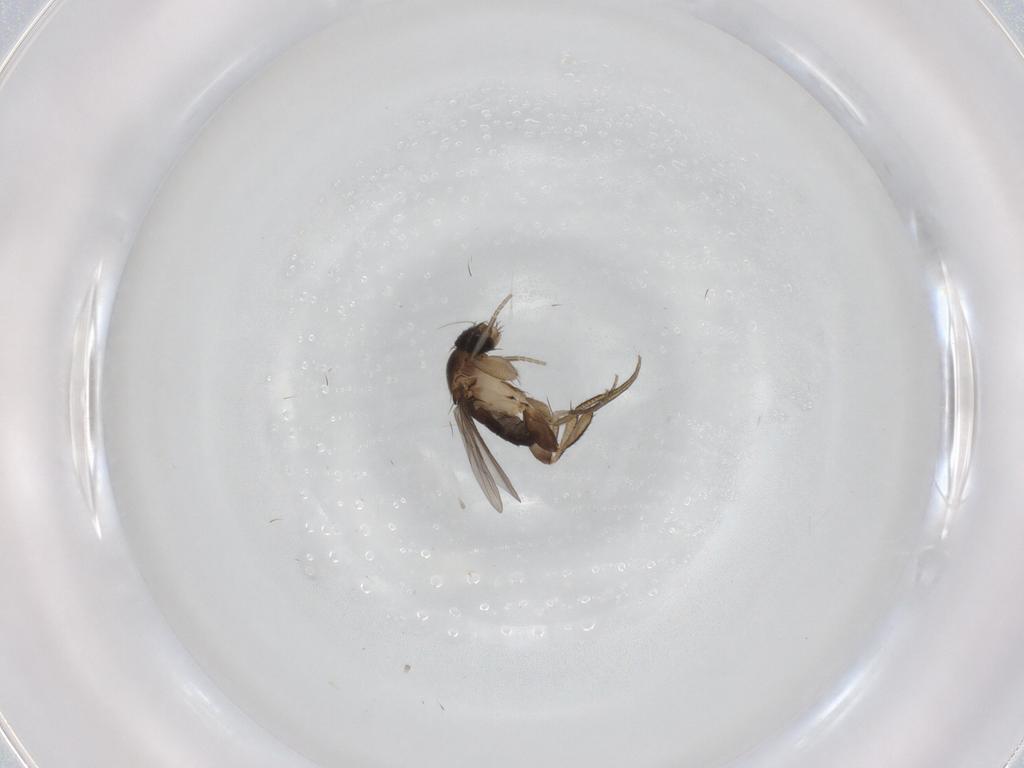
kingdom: Animalia
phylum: Arthropoda
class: Insecta
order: Diptera
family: Phoridae
